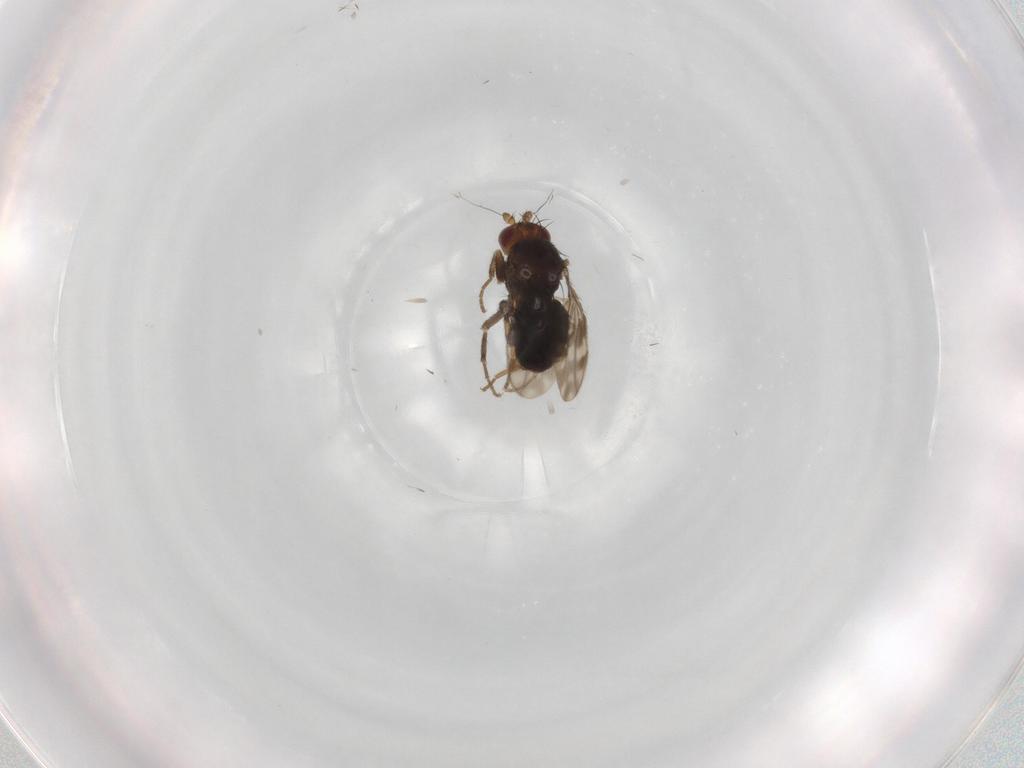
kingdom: Animalia
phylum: Arthropoda
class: Insecta
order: Diptera
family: Sphaeroceridae
